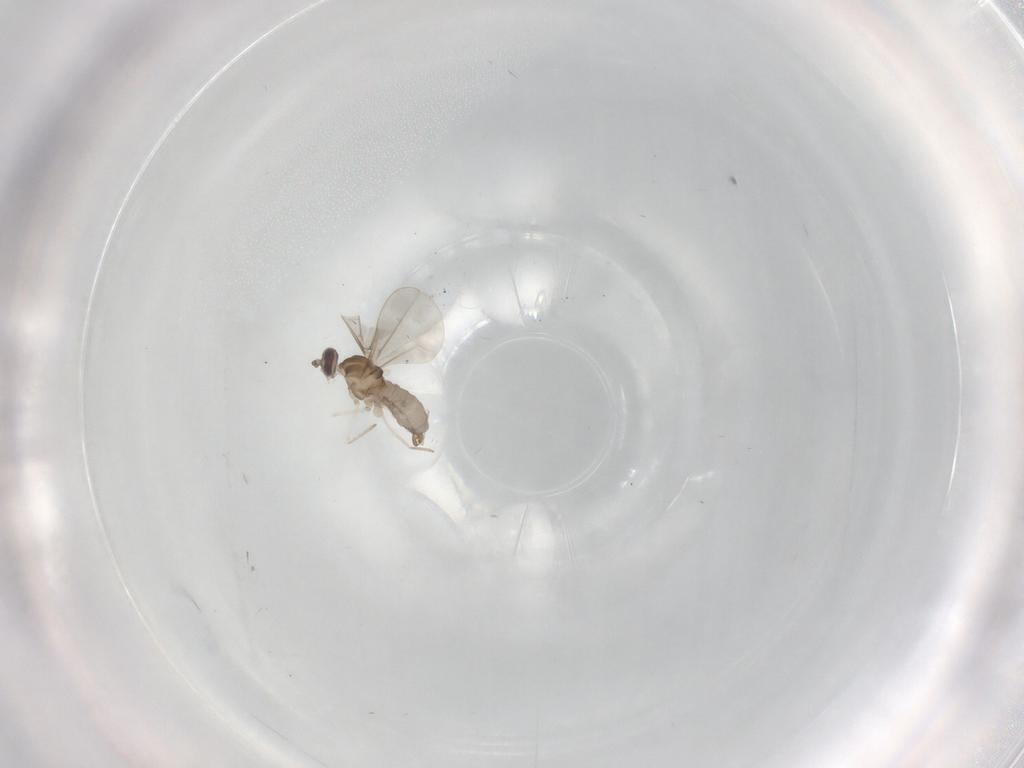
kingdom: Animalia
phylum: Arthropoda
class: Insecta
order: Diptera
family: Cecidomyiidae
